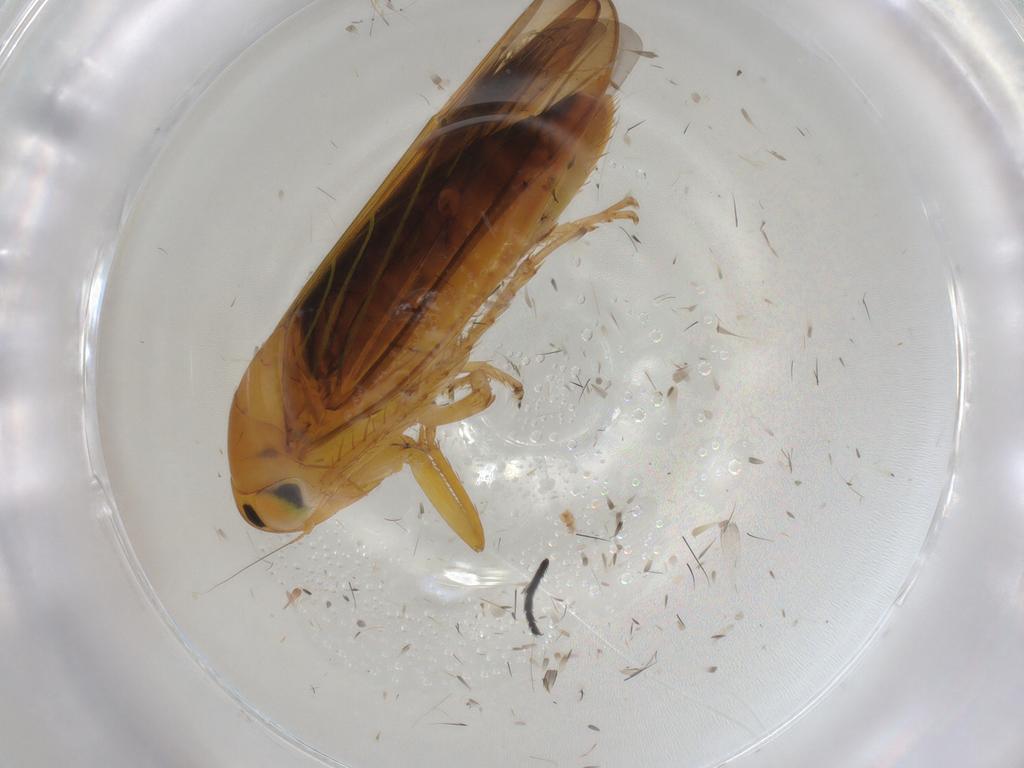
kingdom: Animalia
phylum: Arthropoda
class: Insecta
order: Hemiptera
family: Cicadellidae
